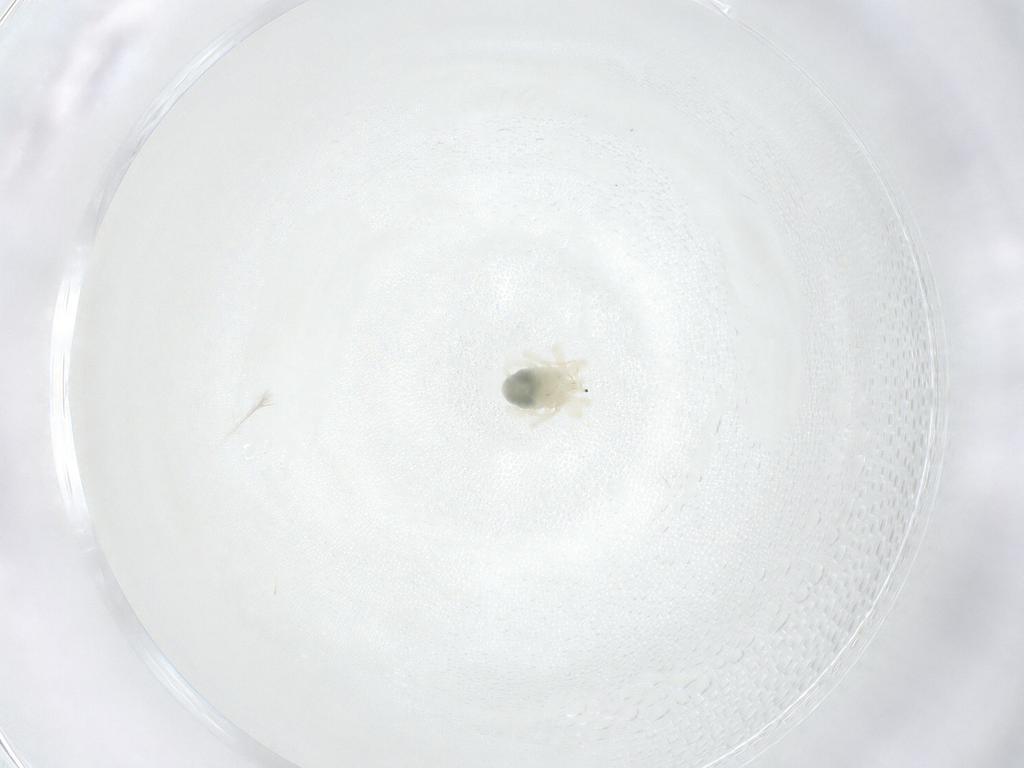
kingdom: Animalia
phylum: Arthropoda
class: Arachnida
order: Trombidiformes
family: Anystidae
